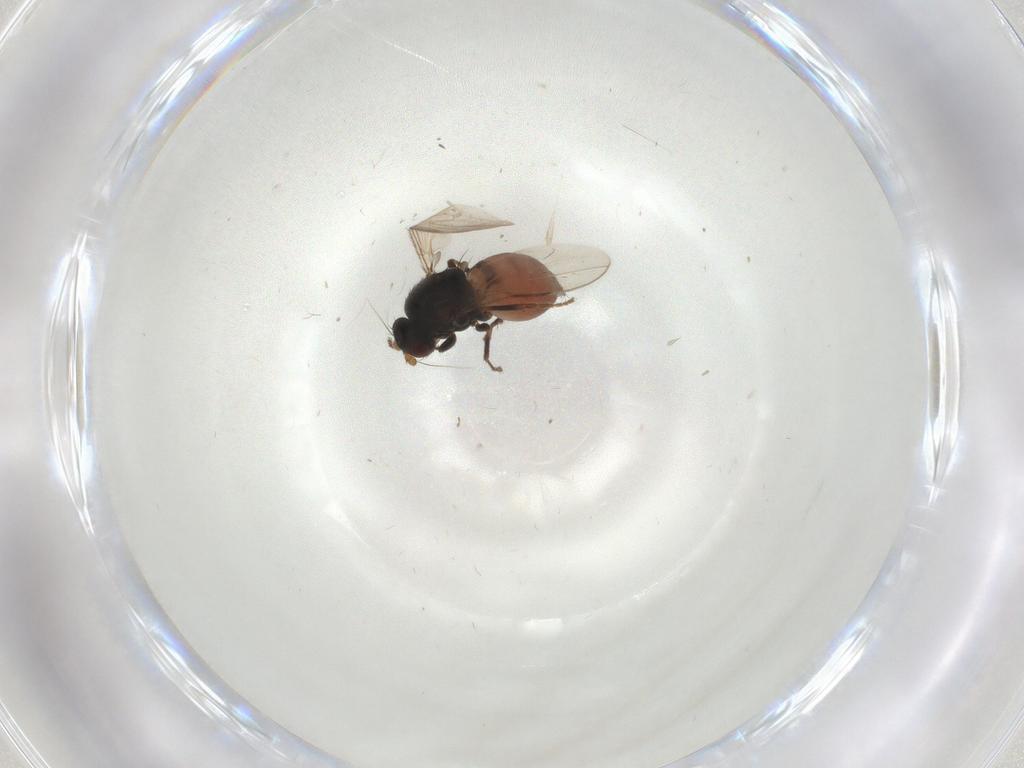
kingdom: Animalia
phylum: Arthropoda
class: Insecta
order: Diptera
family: Sphaeroceridae
